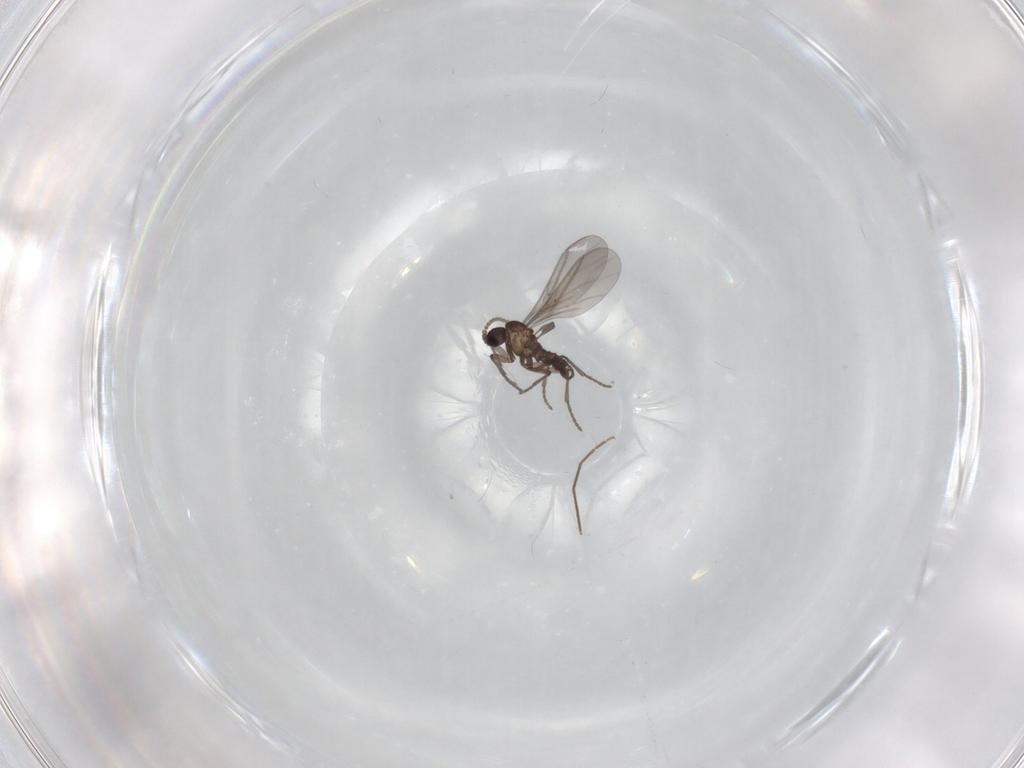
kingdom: Animalia
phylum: Arthropoda
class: Insecta
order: Diptera
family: Chironomidae
